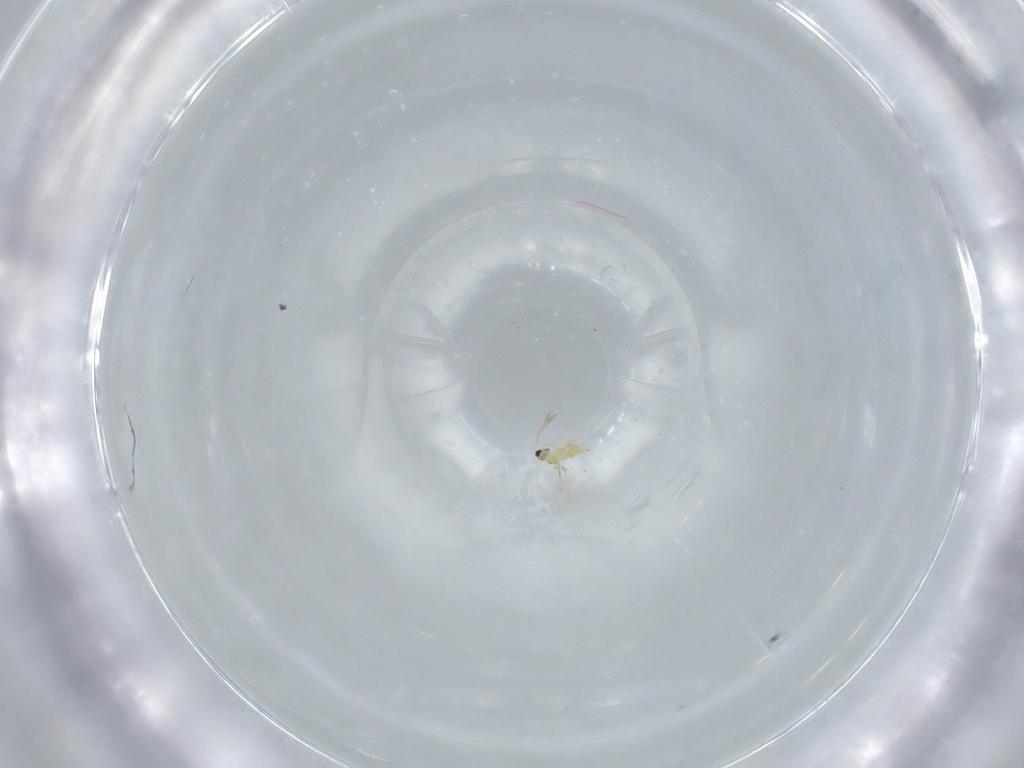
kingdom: Animalia
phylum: Arthropoda
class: Insecta
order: Hymenoptera
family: Mymaridae
